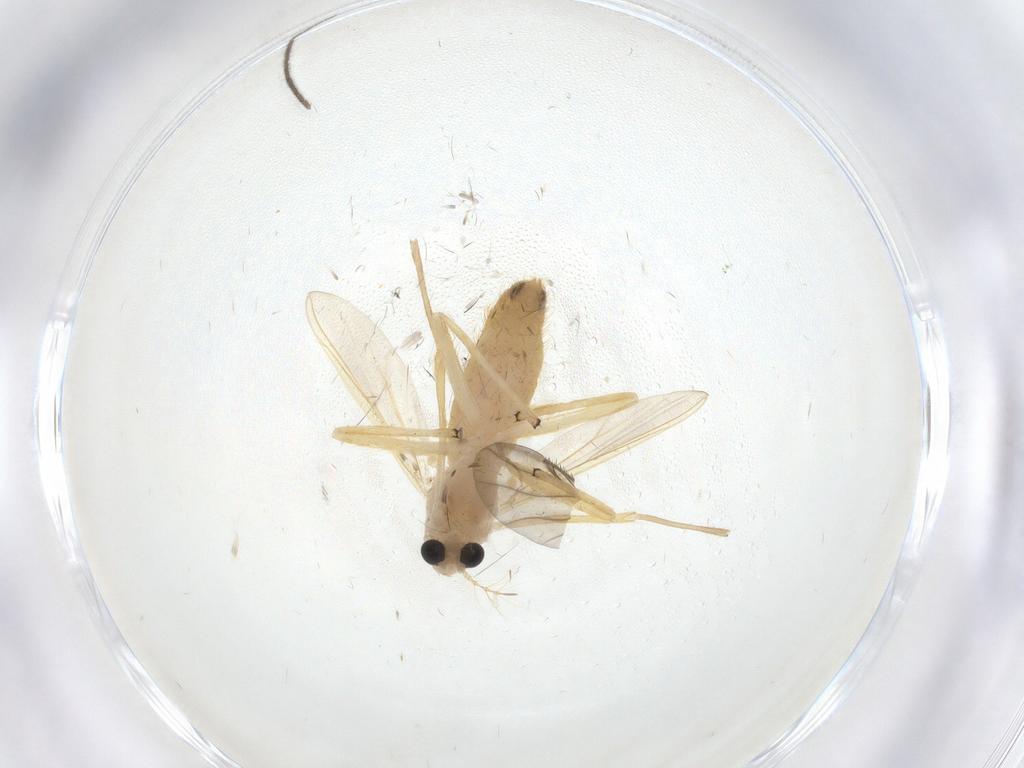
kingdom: Animalia
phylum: Arthropoda
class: Insecta
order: Diptera
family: Chironomidae
